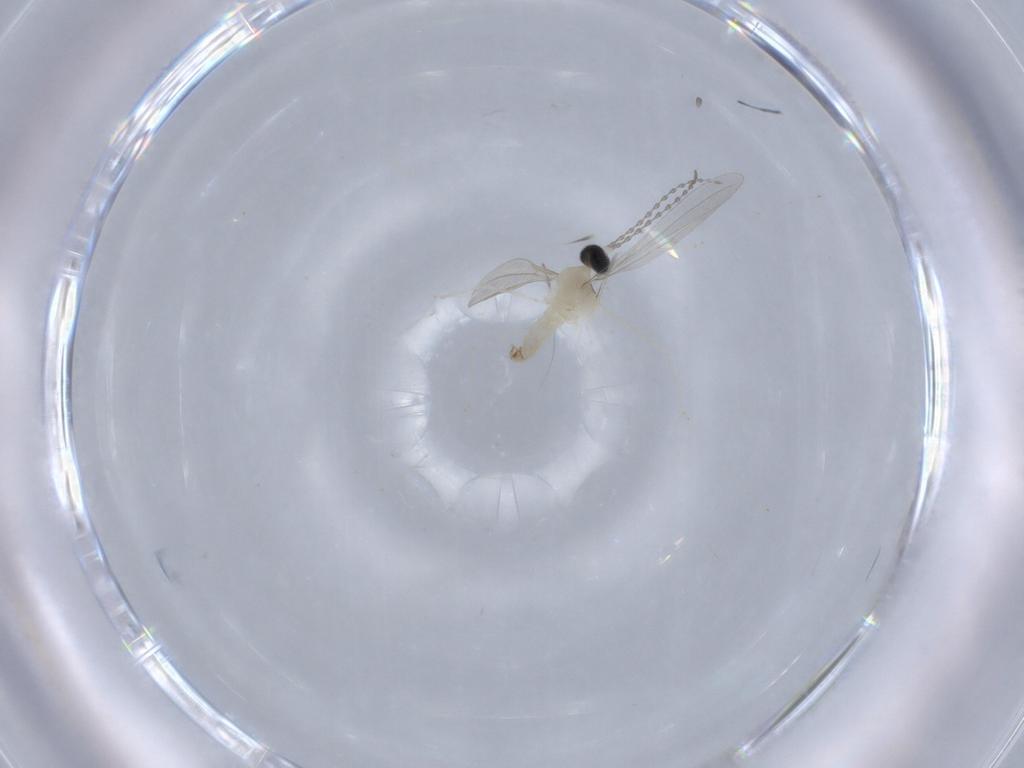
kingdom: Animalia
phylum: Arthropoda
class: Insecta
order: Diptera
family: Cecidomyiidae
